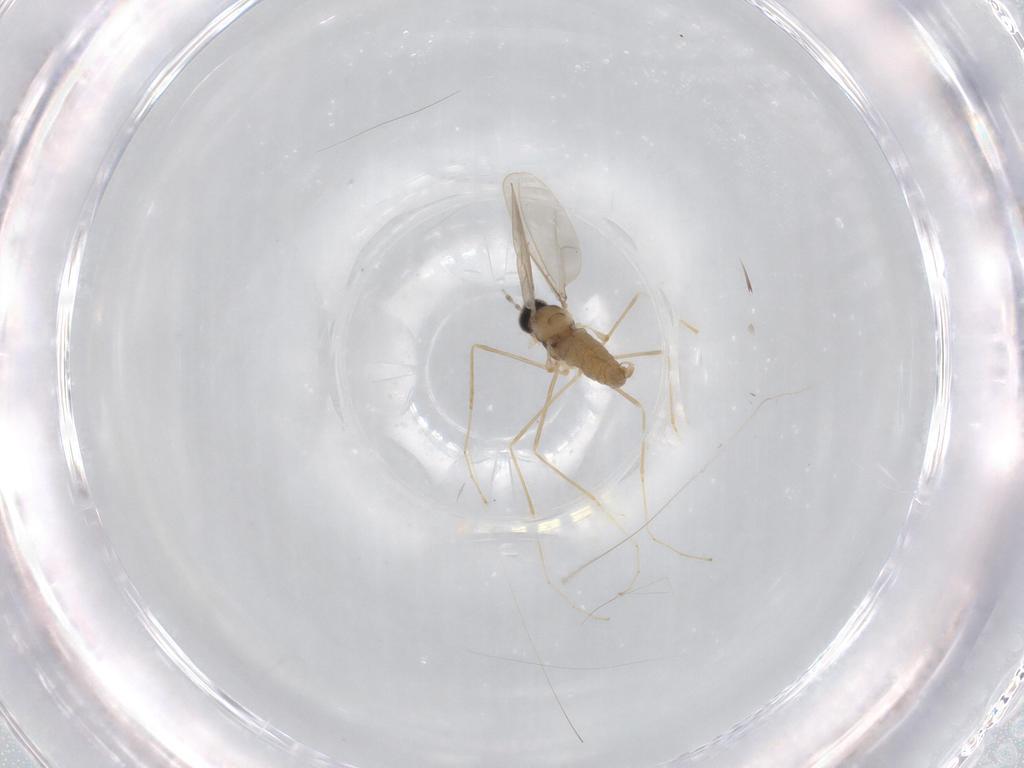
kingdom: Animalia
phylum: Arthropoda
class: Insecta
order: Diptera
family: Cecidomyiidae
